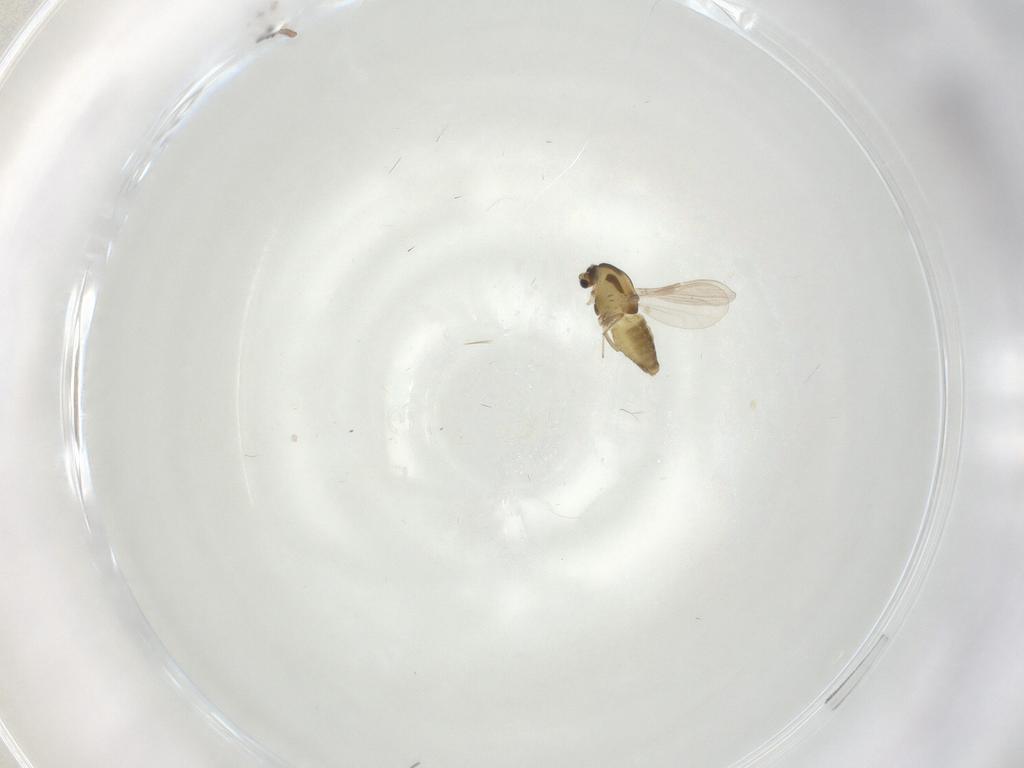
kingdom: Animalia
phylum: Arthropoda
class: Insecta
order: Diptera
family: Chironomidae
